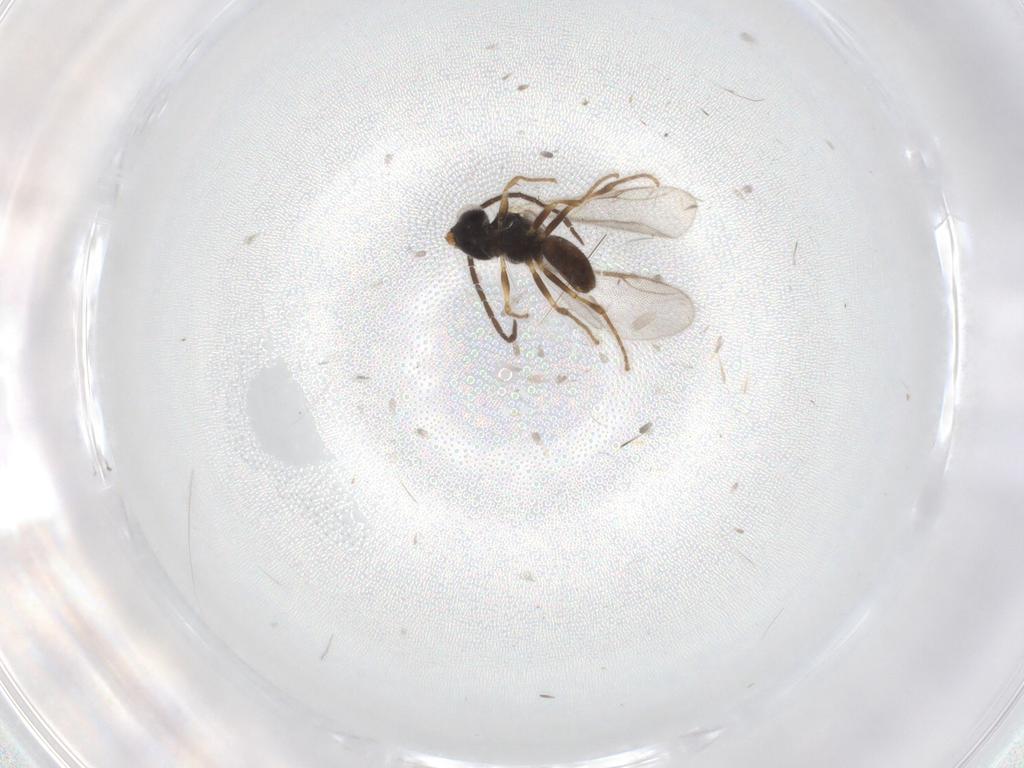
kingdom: Animalia
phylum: Arthropoda
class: Insecta
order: Hymenoptera
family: Dryinidae
